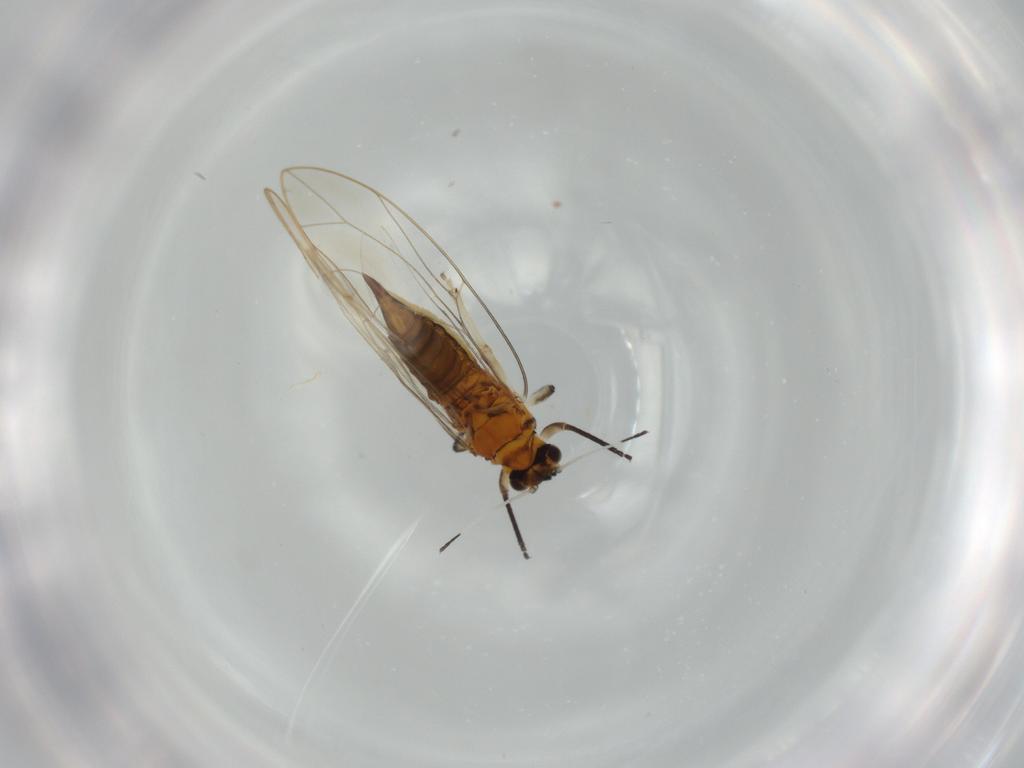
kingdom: Animalia
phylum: Arthropoda
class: Insecta
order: Hemiptera
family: Triozidae
